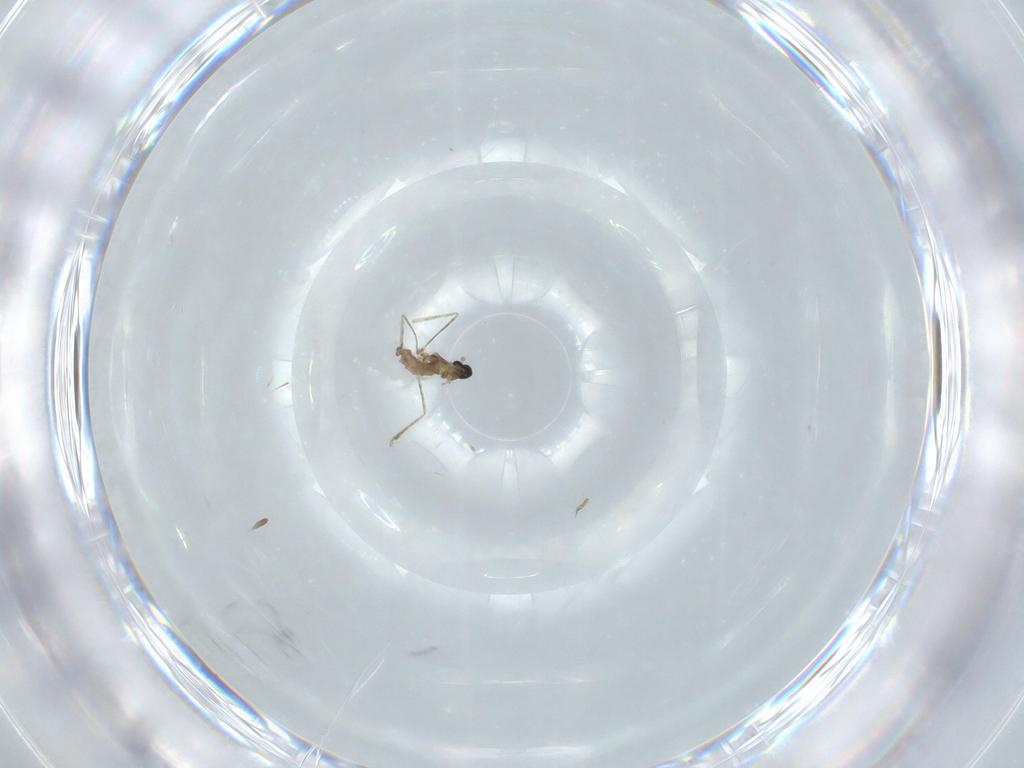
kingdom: Animalia
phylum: Arthropoda
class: Insecta
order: Diptera
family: Cecidomyiidae
